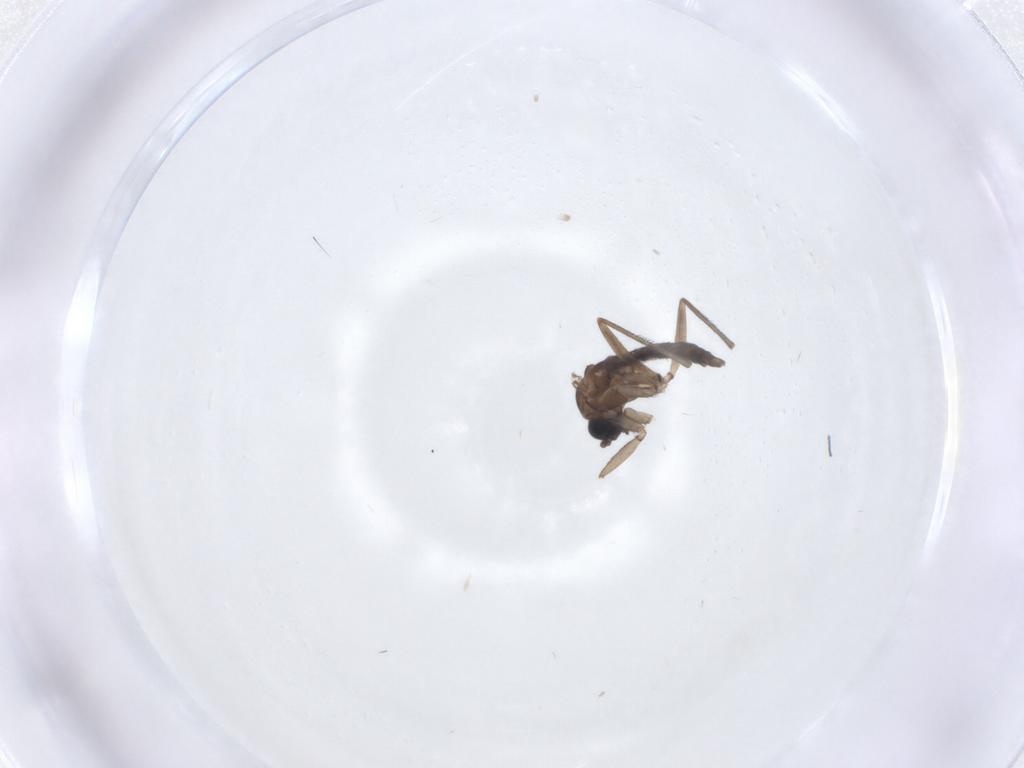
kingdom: Animalia
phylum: Arthropoda
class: Insecta
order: Diptera
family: Sciaridae
